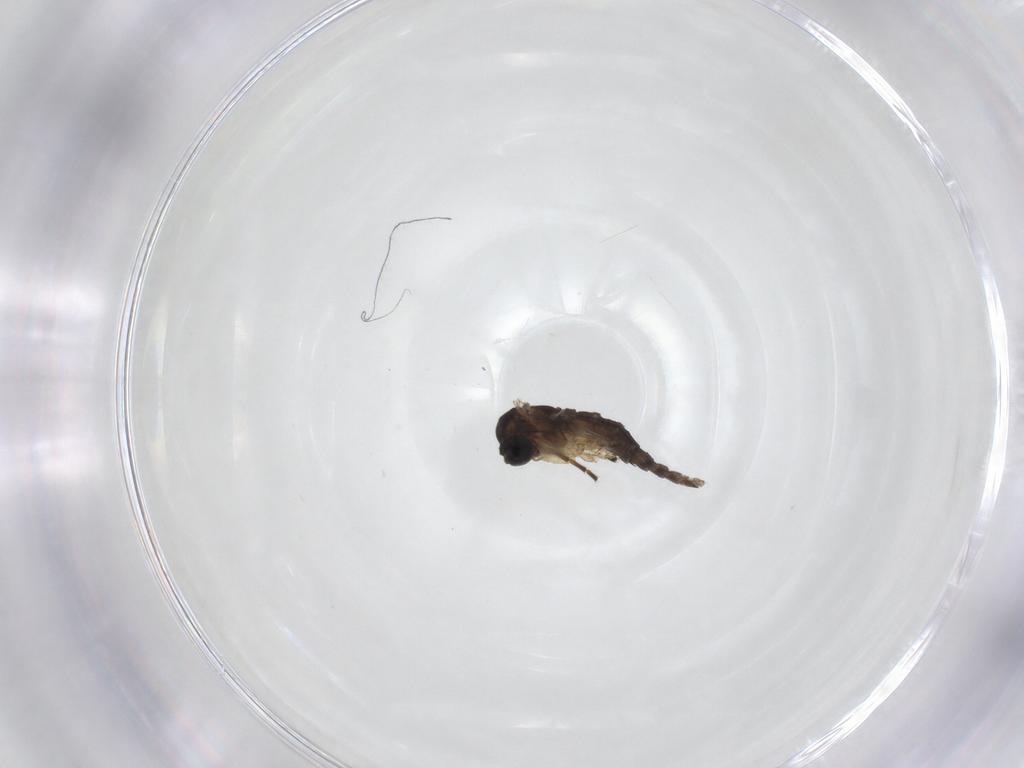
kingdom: Animalia
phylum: Arthropoda
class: Insecta
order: Diptera
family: Sciaridae
